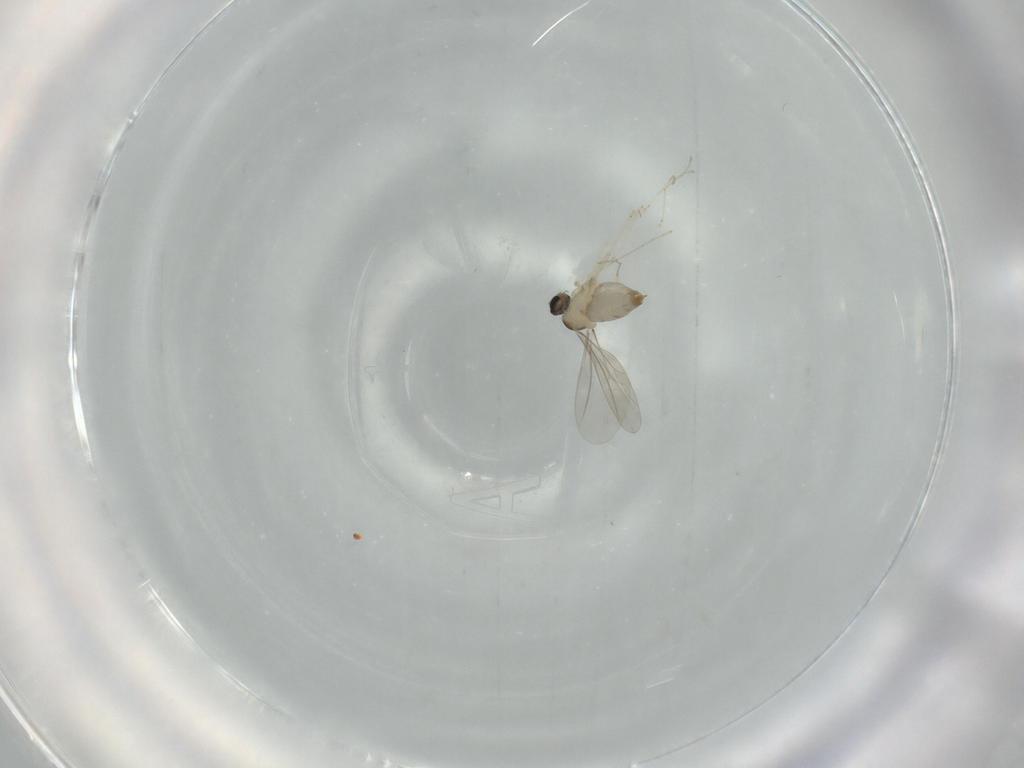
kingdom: Animalia
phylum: Arthropoda
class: Insecta
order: Diptera
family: Cecidomyiidae
